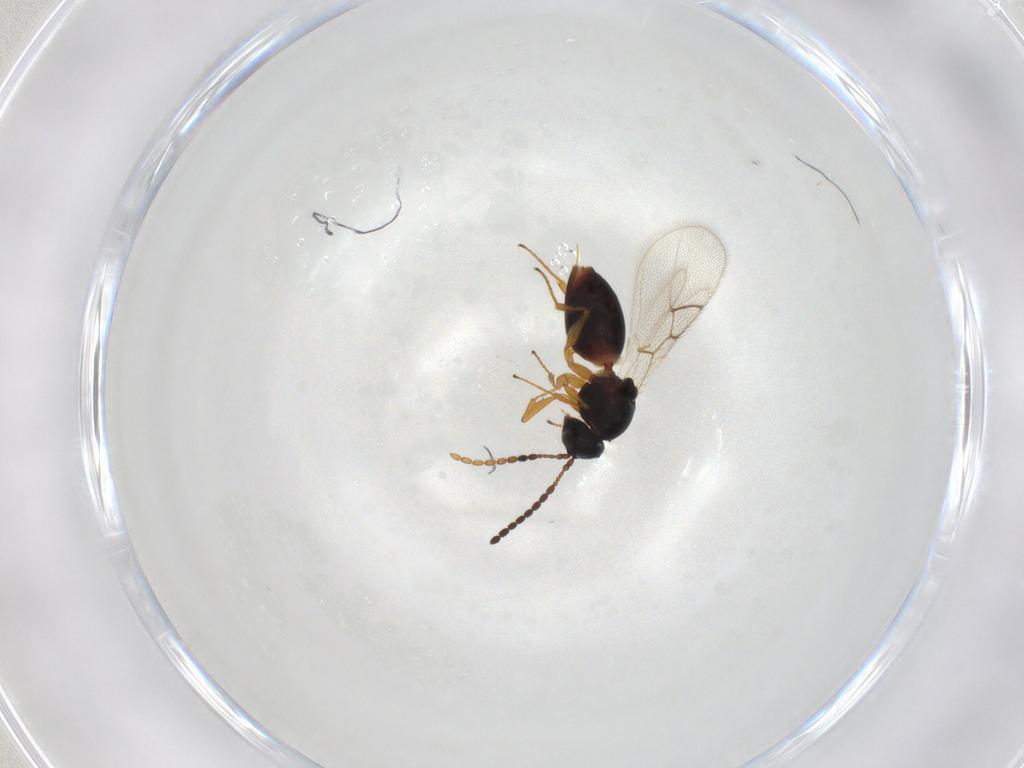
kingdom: Animalia
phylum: Arthropoda
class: Insecta
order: Hymenoptera
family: Figitidae
